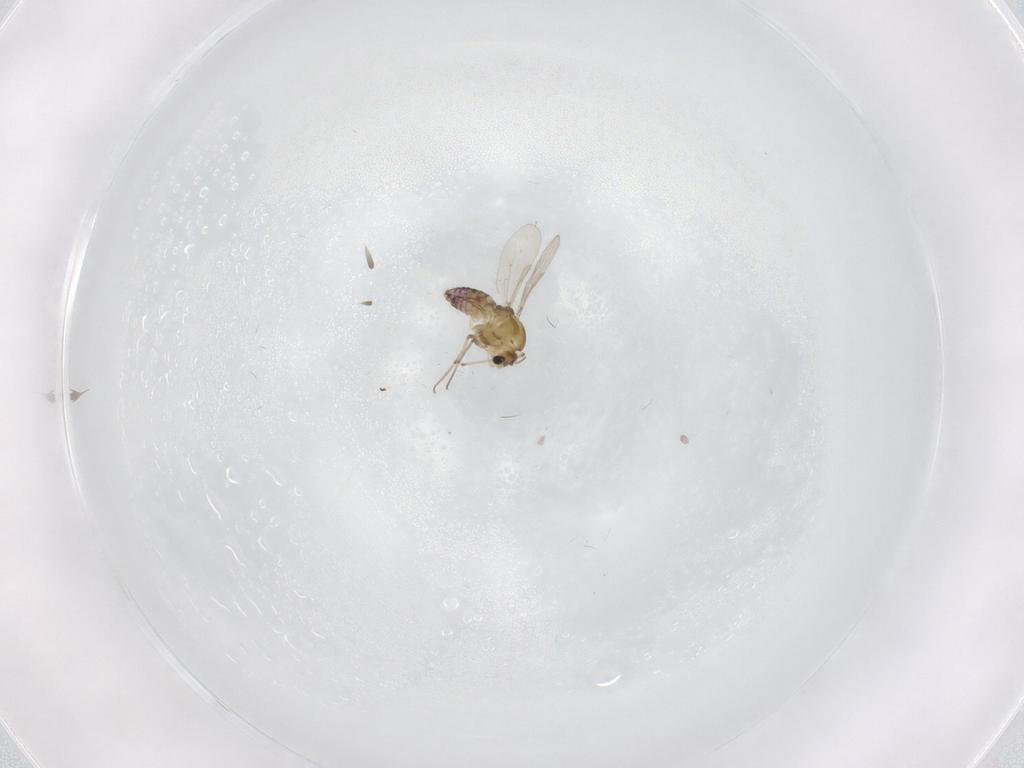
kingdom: Animalia
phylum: Arthropoda
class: Insecta
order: Diptera
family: Chironomidae
